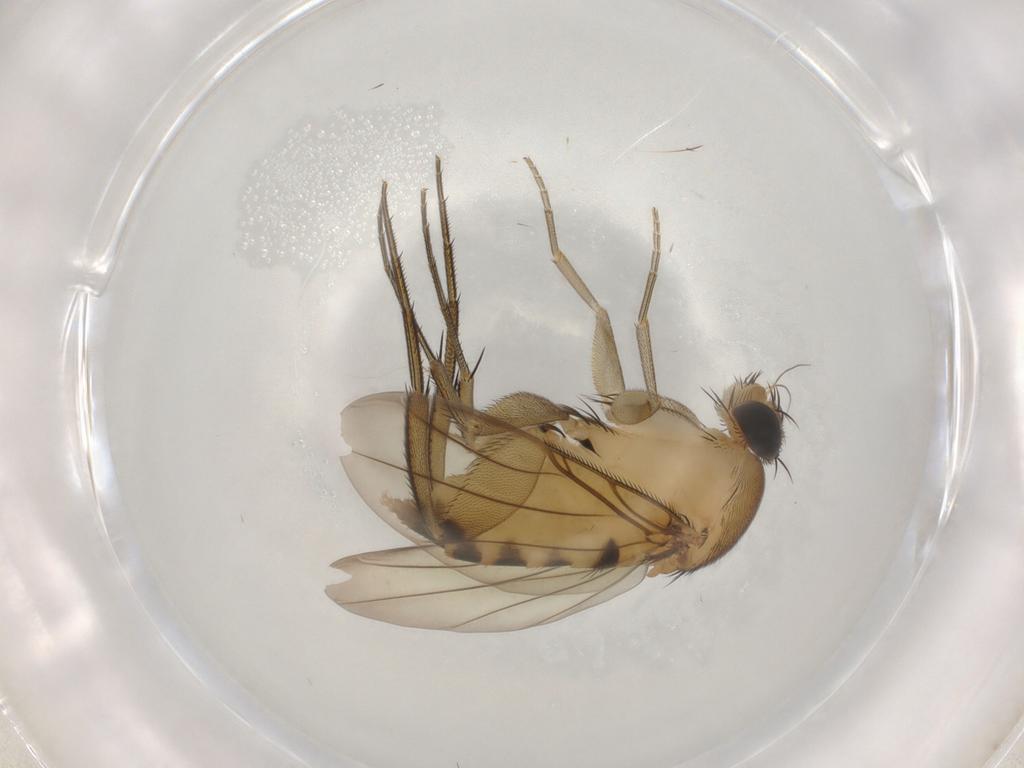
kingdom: Animalia
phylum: Arthropoda
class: Insecta
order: Diptera
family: Phoridae
